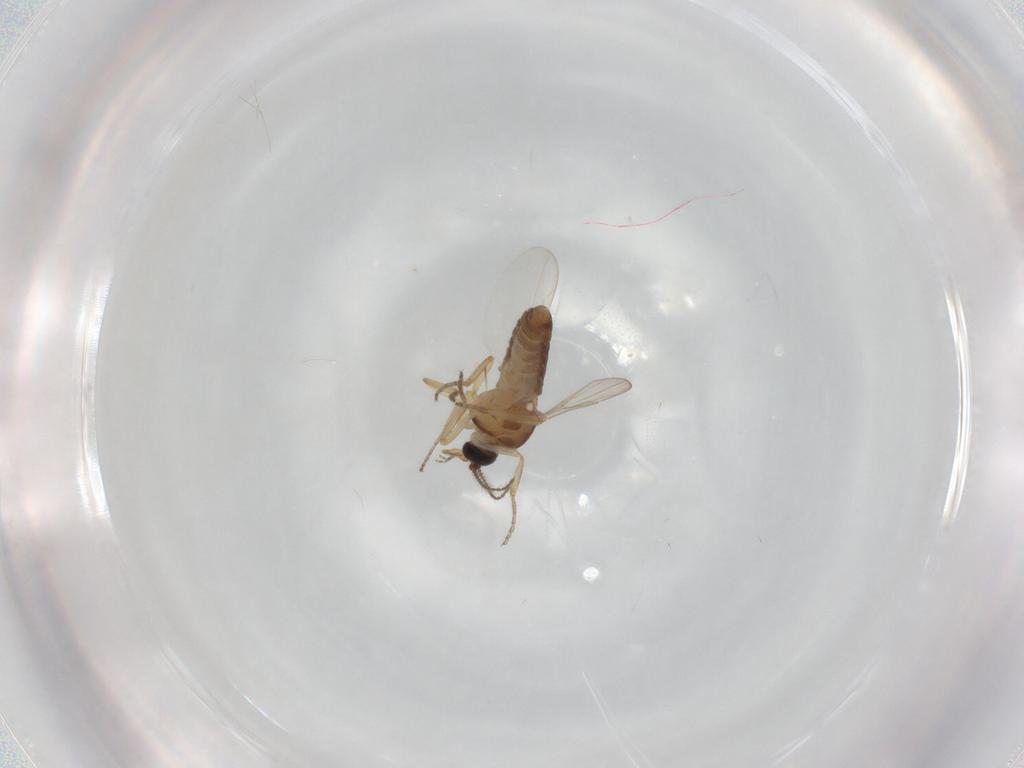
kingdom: Animalia
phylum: Arthropoda
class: Insecta
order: Diptera
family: Ceratopogonidae
